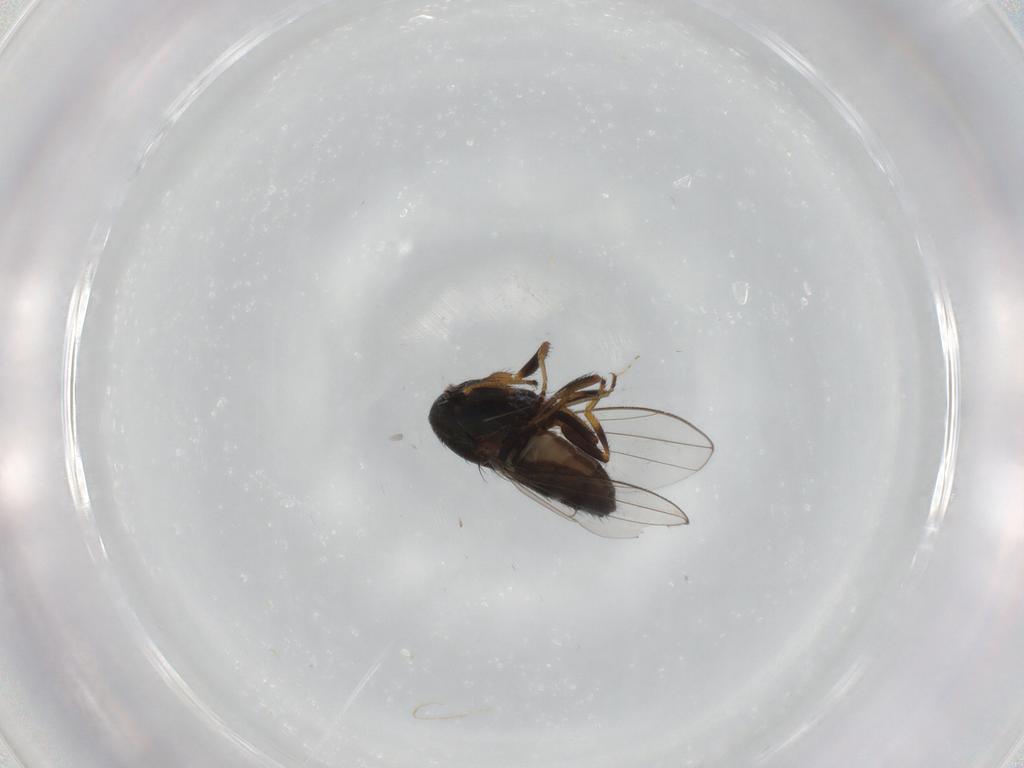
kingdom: Animalia
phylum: Arthropoda
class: Insecta
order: Diptera
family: Ephydridae
